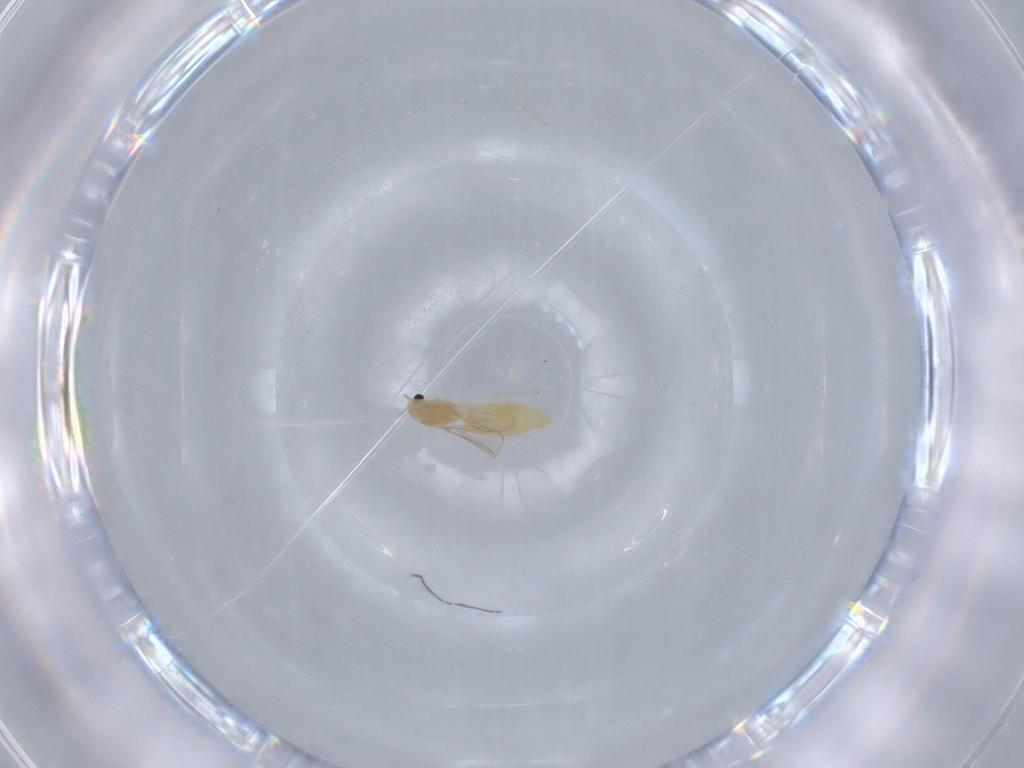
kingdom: Animalia
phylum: Arthropoda
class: Insecta
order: Diptera
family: Chironomidae
